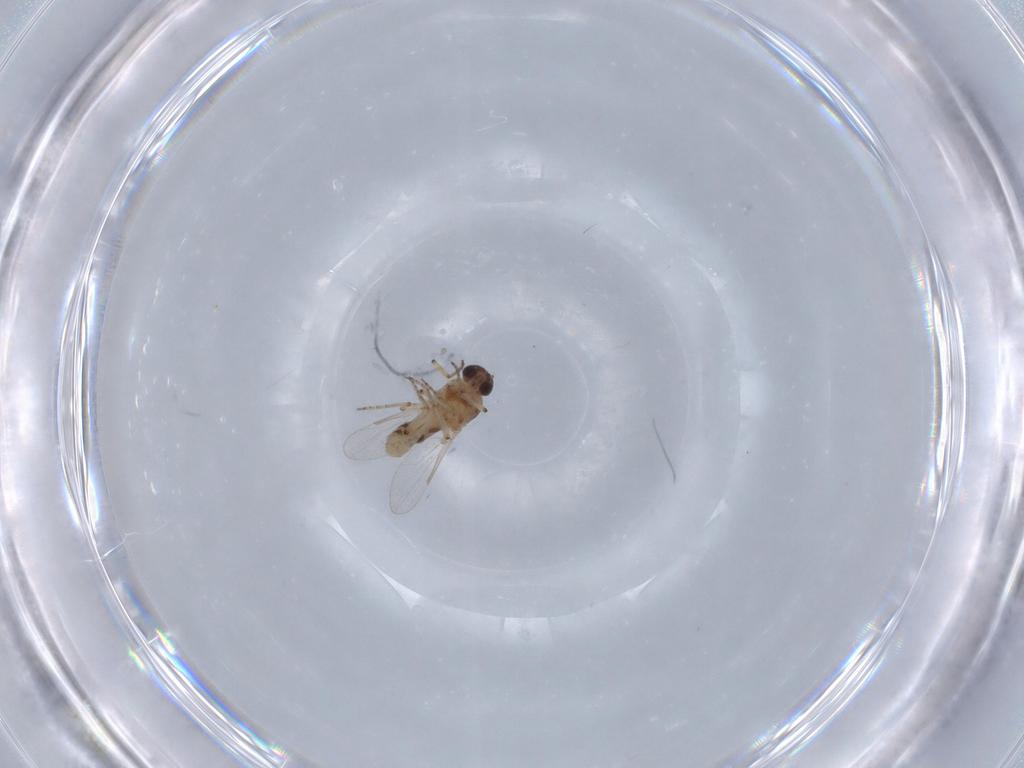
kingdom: Animalia
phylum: Arthropoda
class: Insecta
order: Diptera
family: Ceratopogonidae
